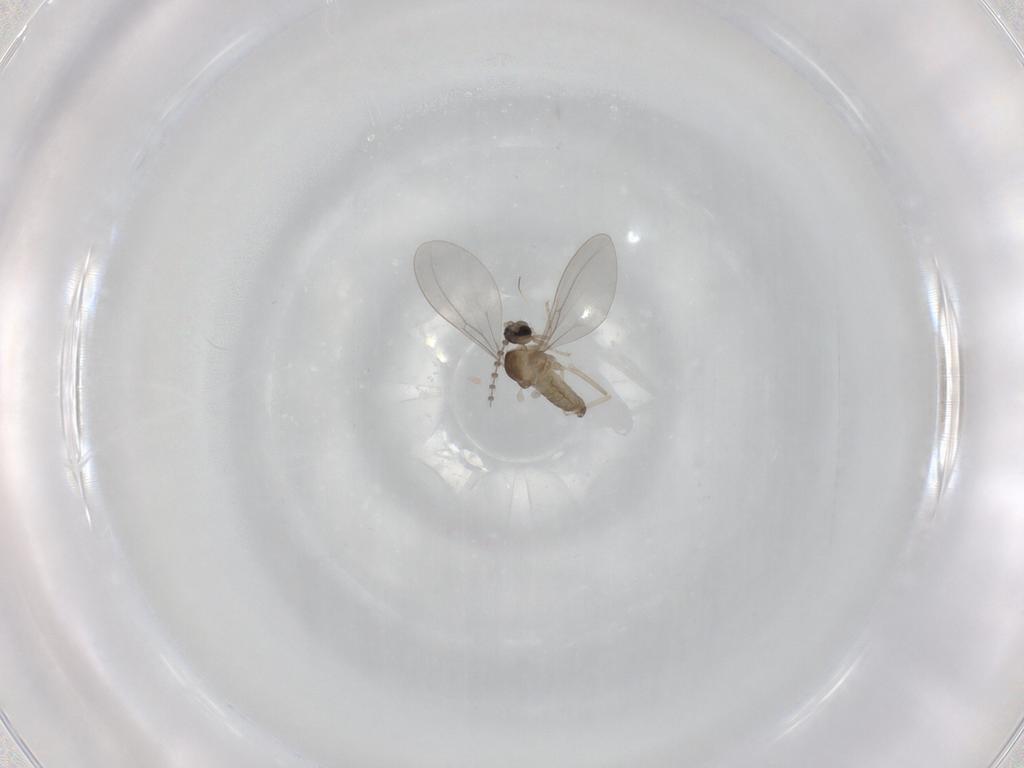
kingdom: Animalia
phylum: Arthropoda
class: Insecta
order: Diptera
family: Cecidomyiidae
